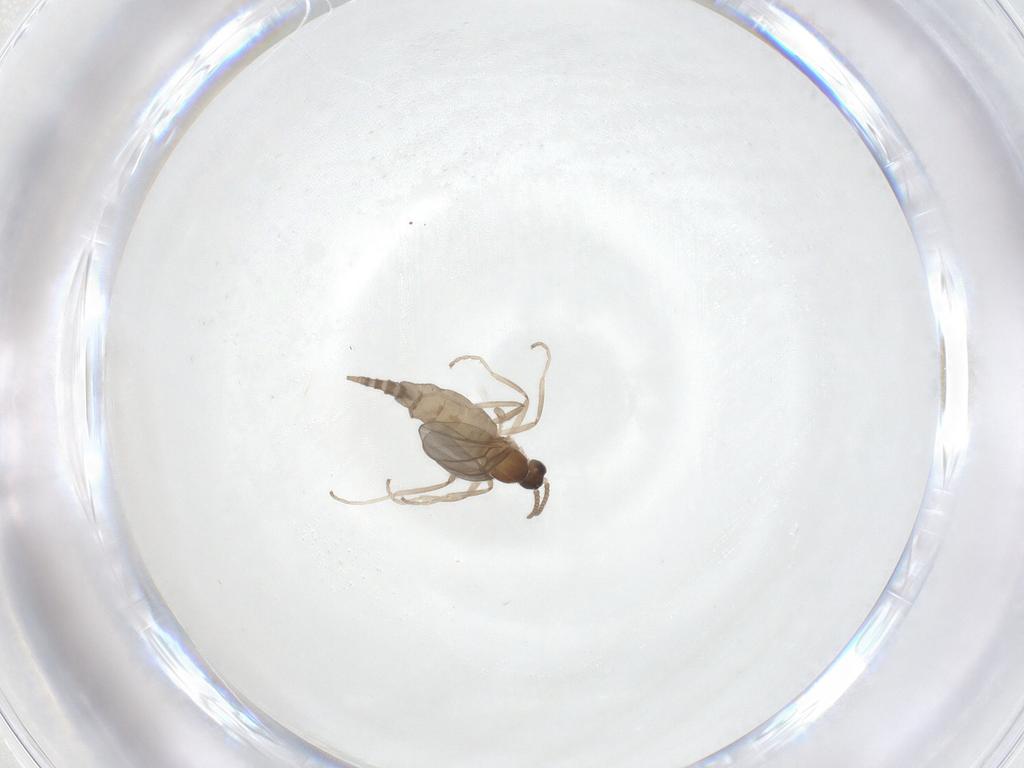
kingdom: Animalia
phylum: Arthropoda
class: Insecta
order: Diptera
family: Cecidomyiidae
